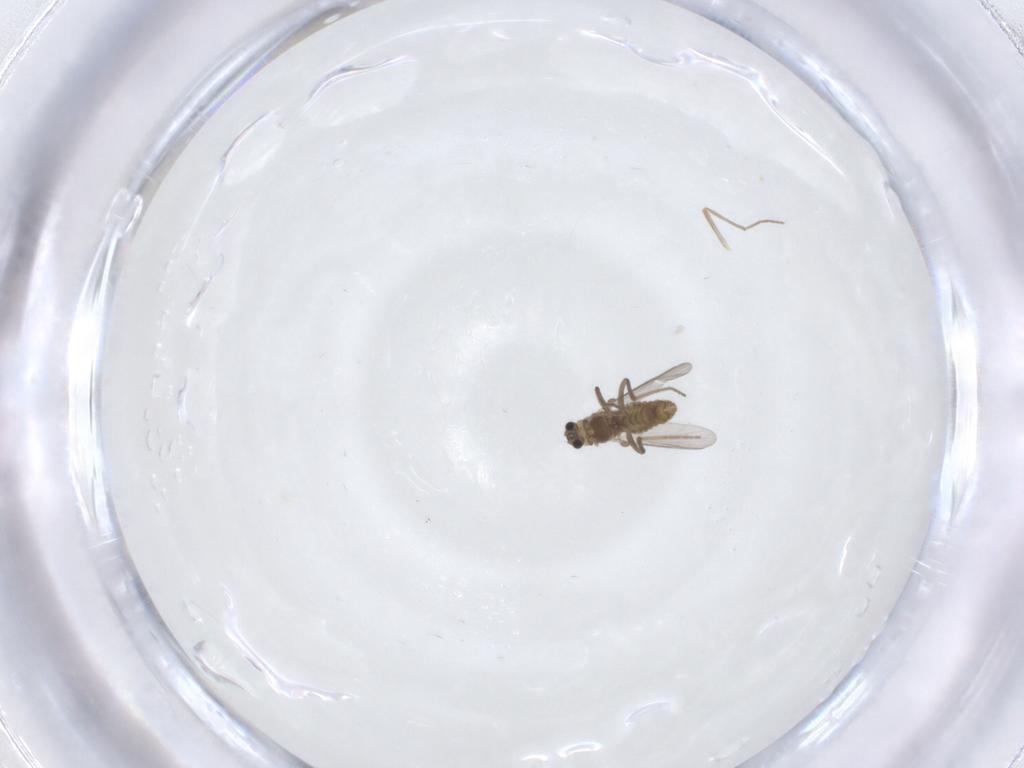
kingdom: Animalia
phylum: Arthropoda
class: Insecta
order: Diptera
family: Chironomidae
